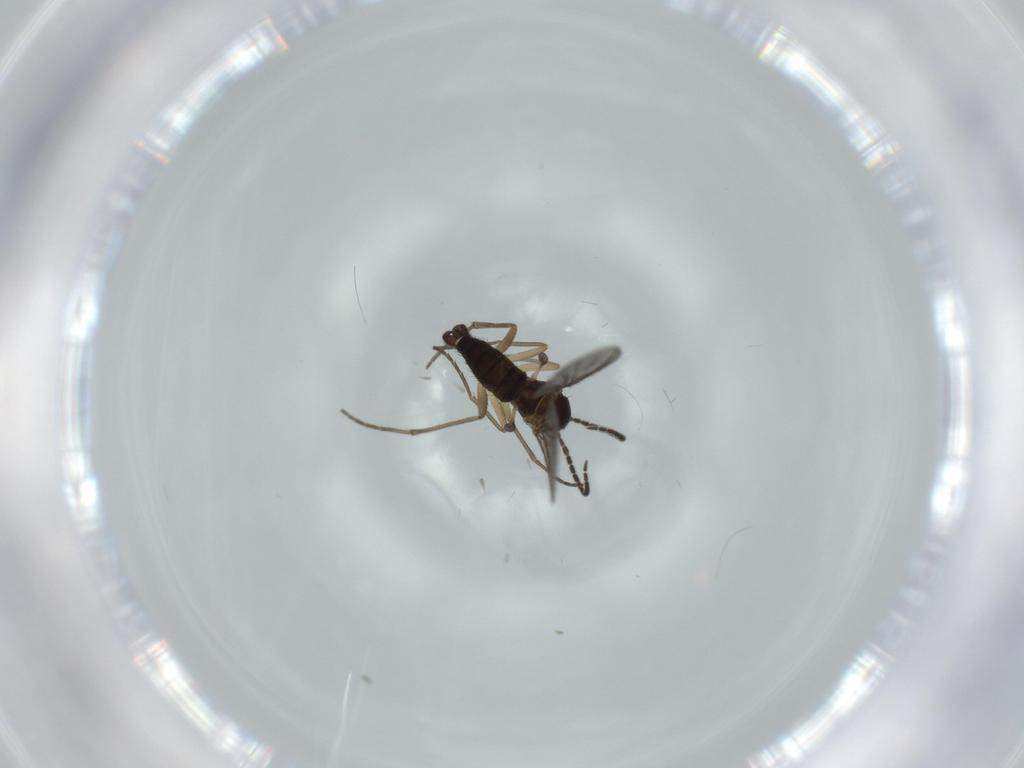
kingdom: Animalia
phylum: Arthropoda
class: Insecta
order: Diptera
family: Sciaridae
